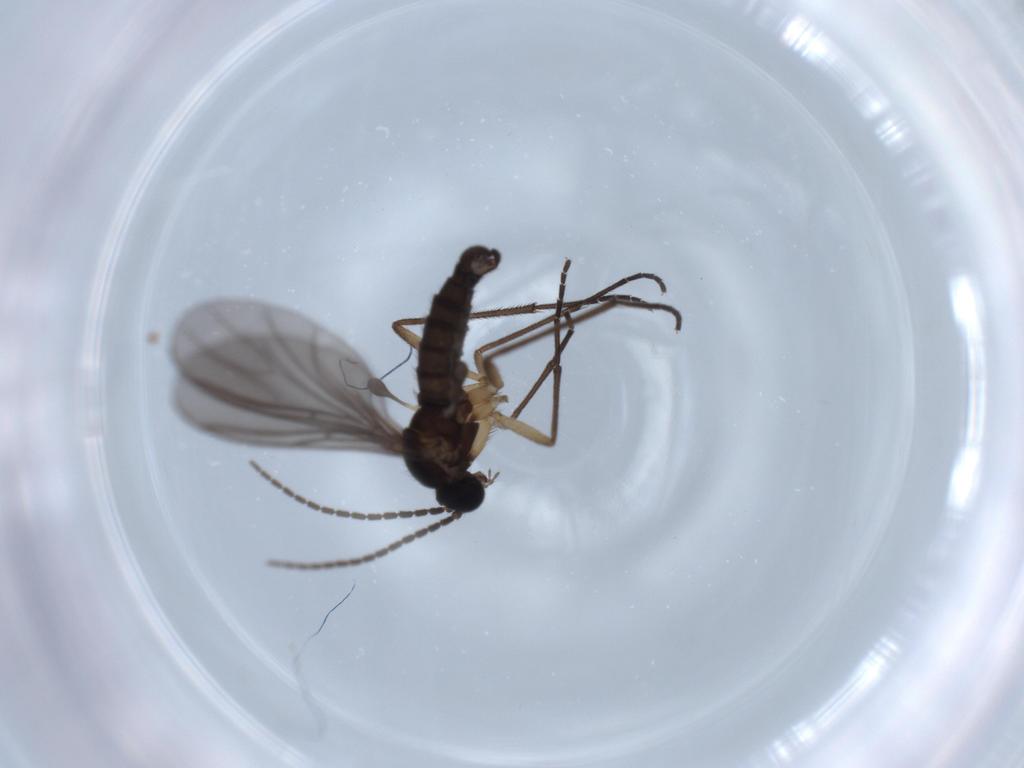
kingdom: Animalia
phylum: Arthropoda
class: Insecta
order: Diptera
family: Sciaridae
